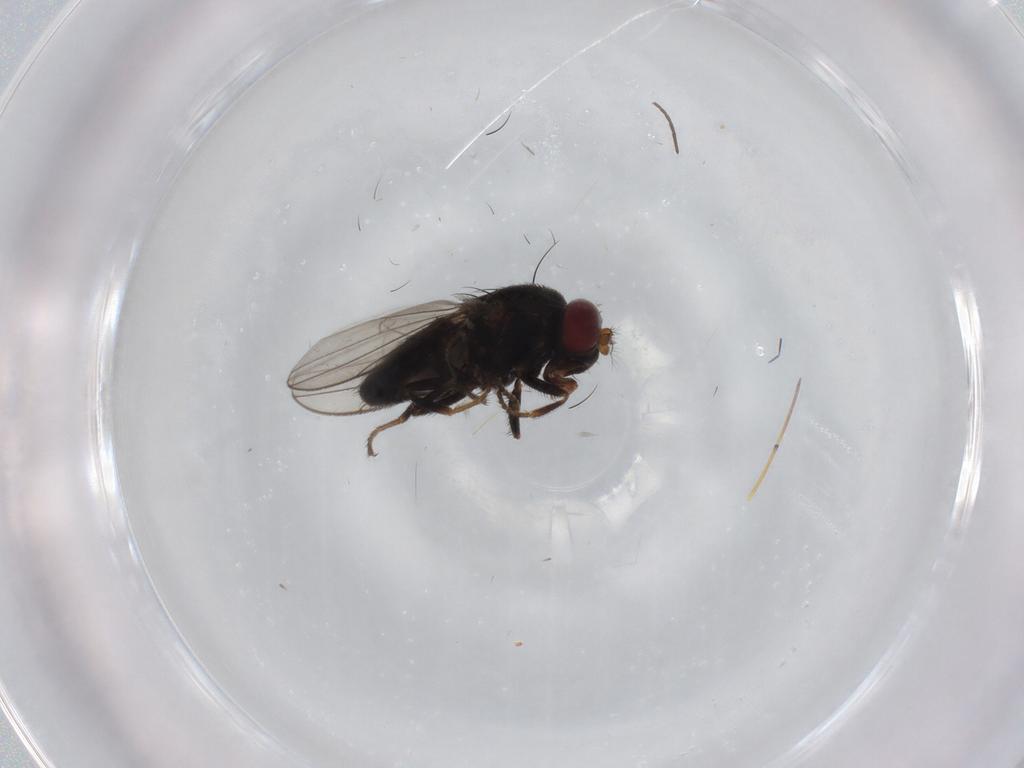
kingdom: Animalia
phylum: Arthropoda
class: Insecta
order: Diptera
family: Ephydridae
